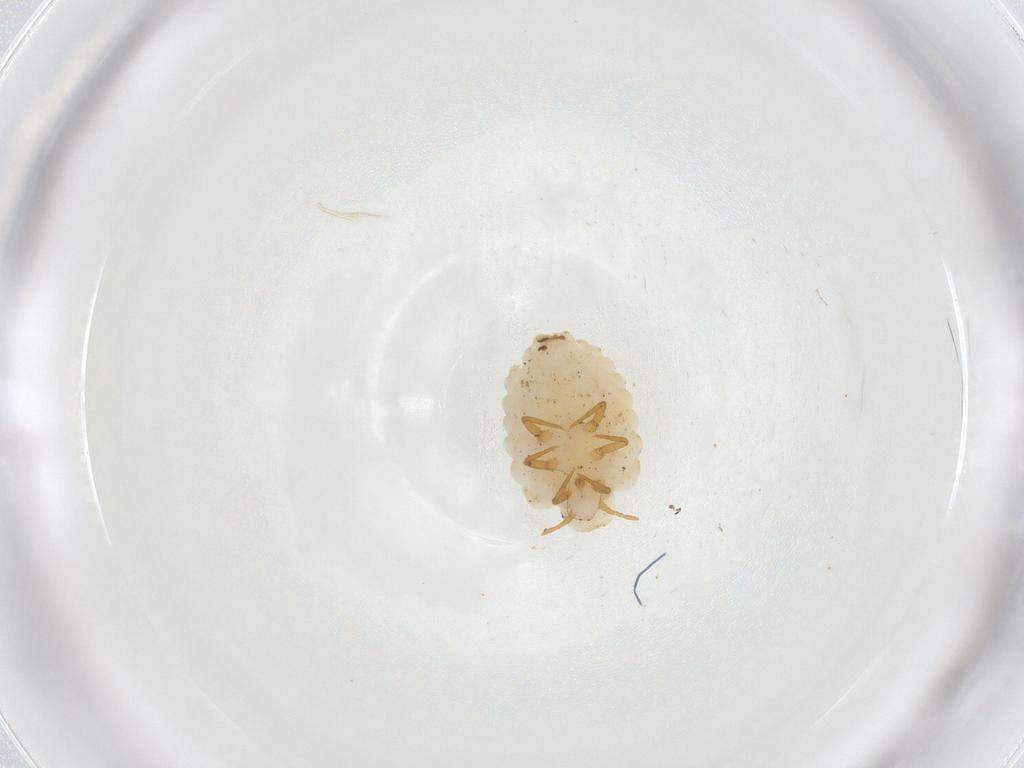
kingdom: Animalia
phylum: Arthropoda
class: Insecta
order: Hemiptera
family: Ortheziidae
